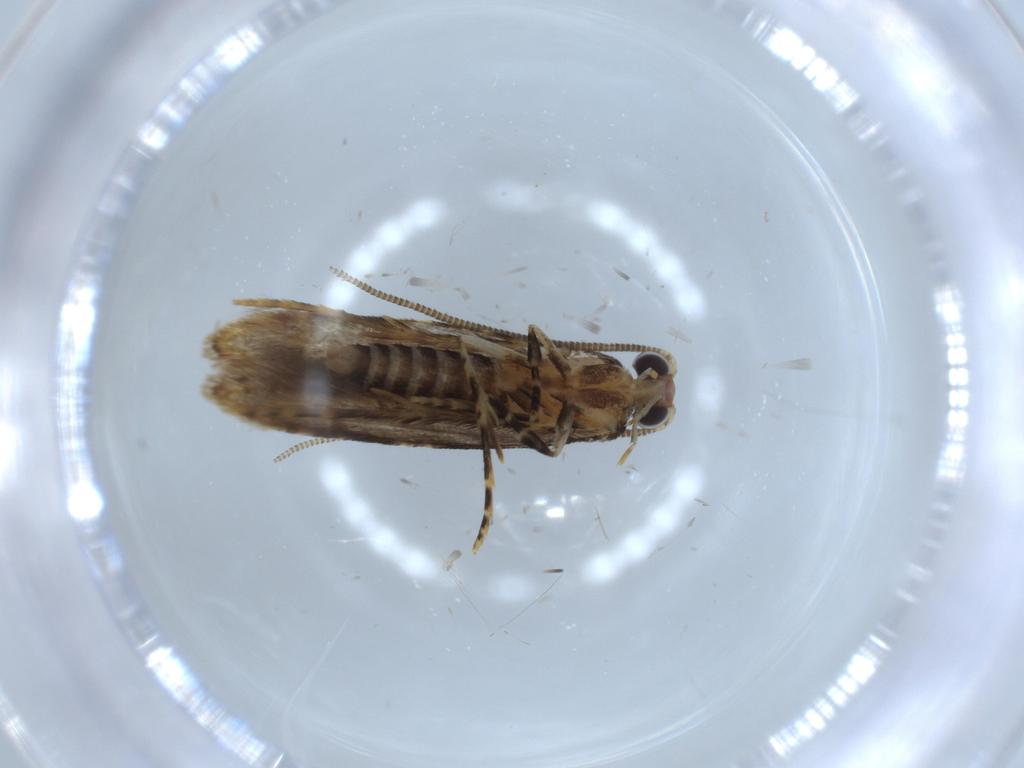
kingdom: Animalia
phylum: Arthropoda
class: Insecta
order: Lepidoptera
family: Tineidae
